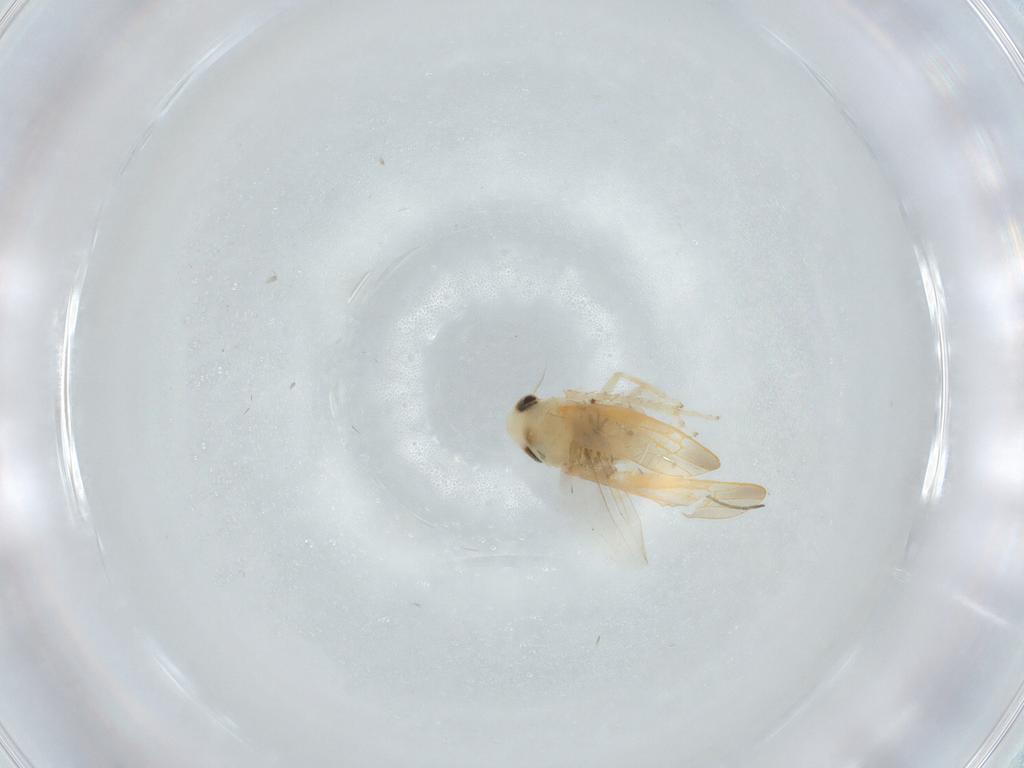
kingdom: Animalia
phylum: Arthropoda
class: Insecta
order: Hemiptera
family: Cicadellidae
